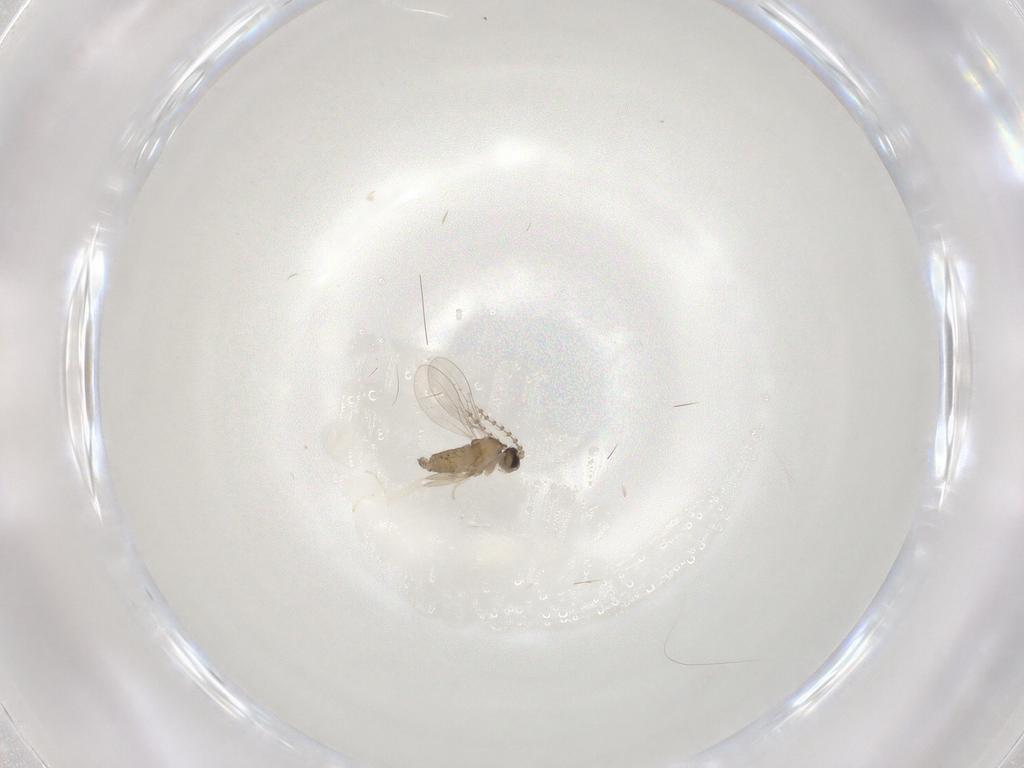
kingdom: Animalia
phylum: Arthropoda
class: Insecta
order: Diptera
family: Cecidomyiidae
